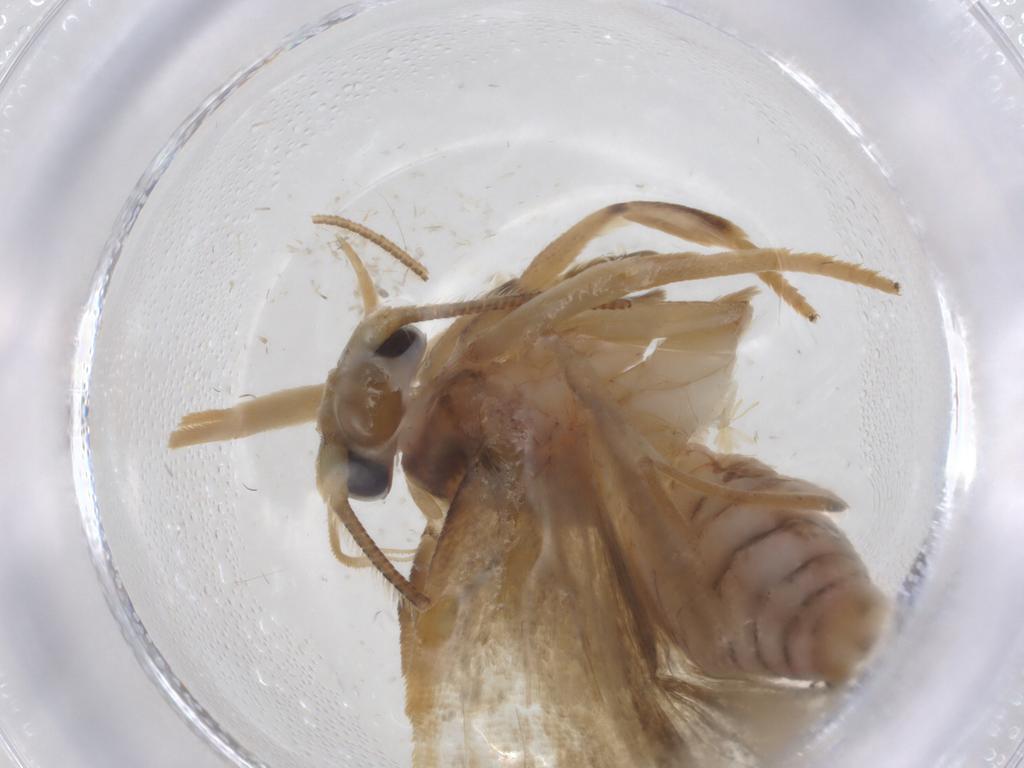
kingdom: Animalia
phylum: Arthropoda
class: Insecta
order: Lepidoptera
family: Depressariidae
